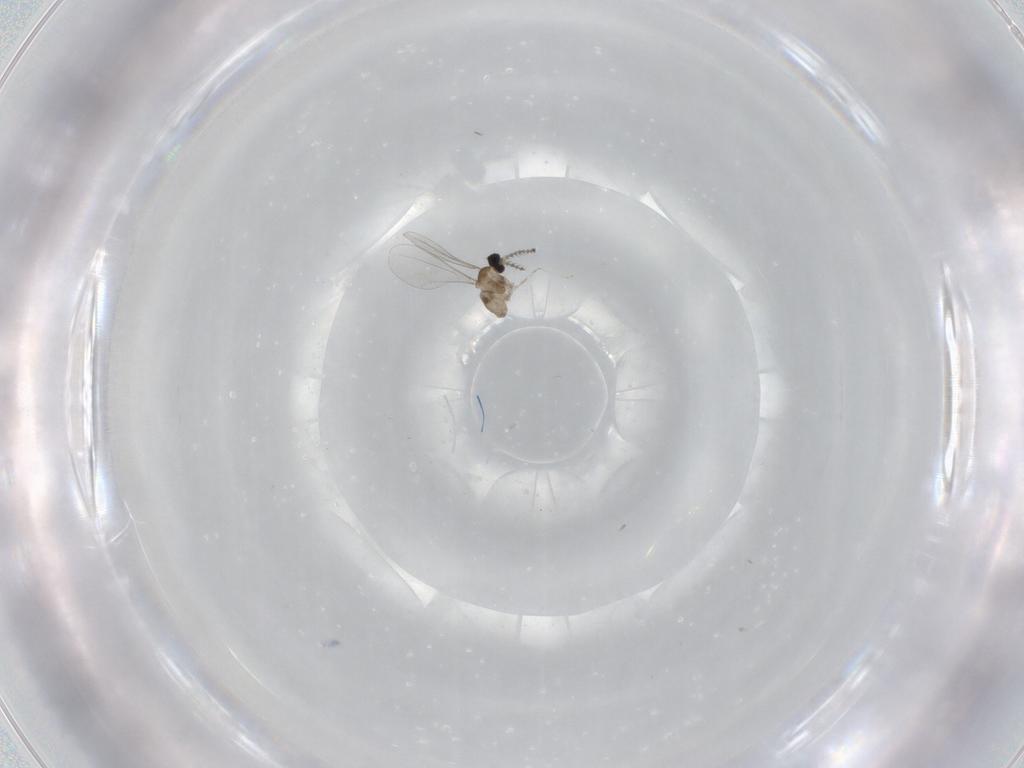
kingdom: Animalia
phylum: Arthropoda
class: Insecta
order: Diptera
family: Cecidomyiidae
